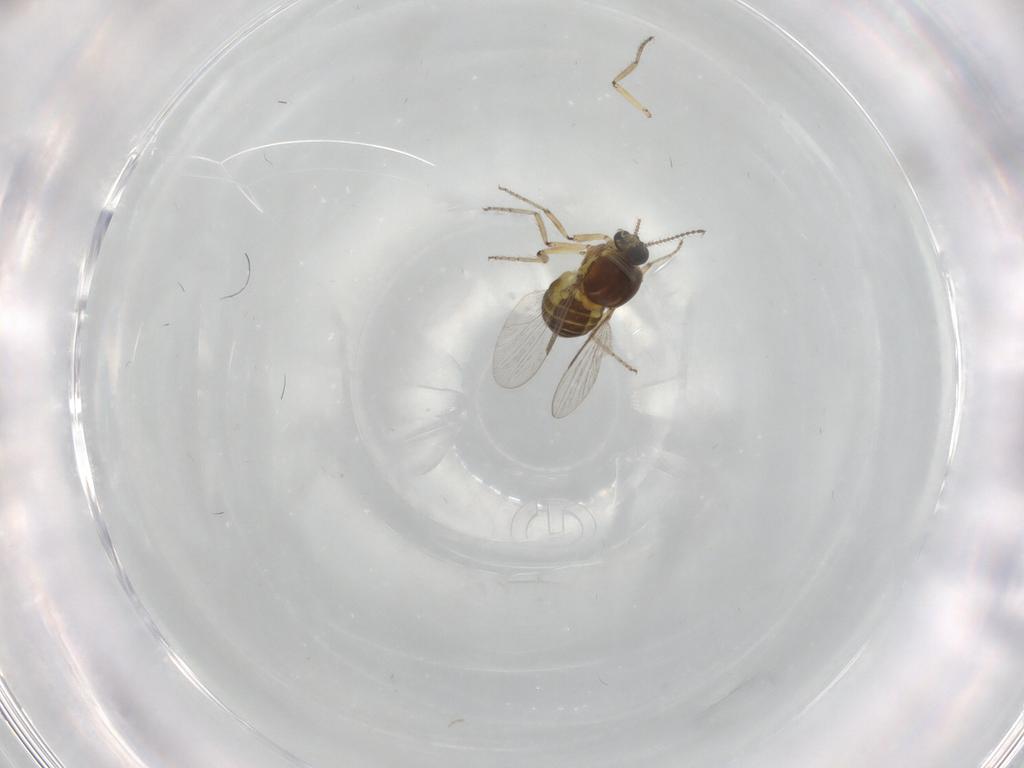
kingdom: Animalia
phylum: Arthropoda
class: Insecta
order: Diptera
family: Ceratopogonidae
